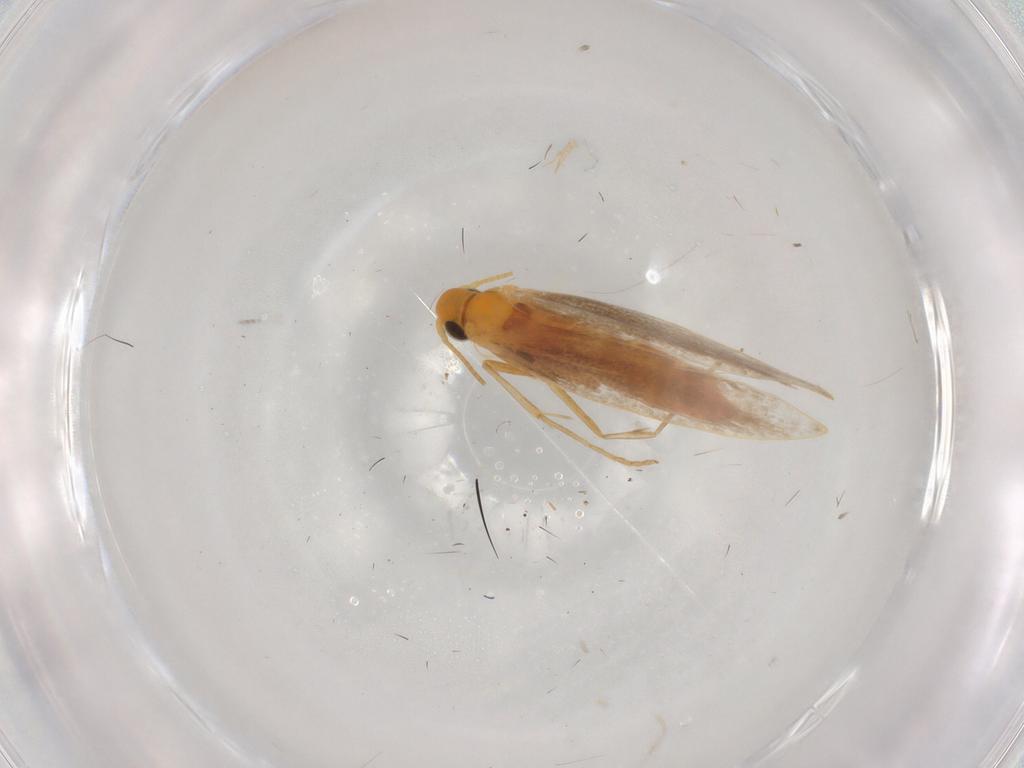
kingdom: Animalia
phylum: Arthropoda
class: Insecta
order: Lepidoptera
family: Gracillariidae
